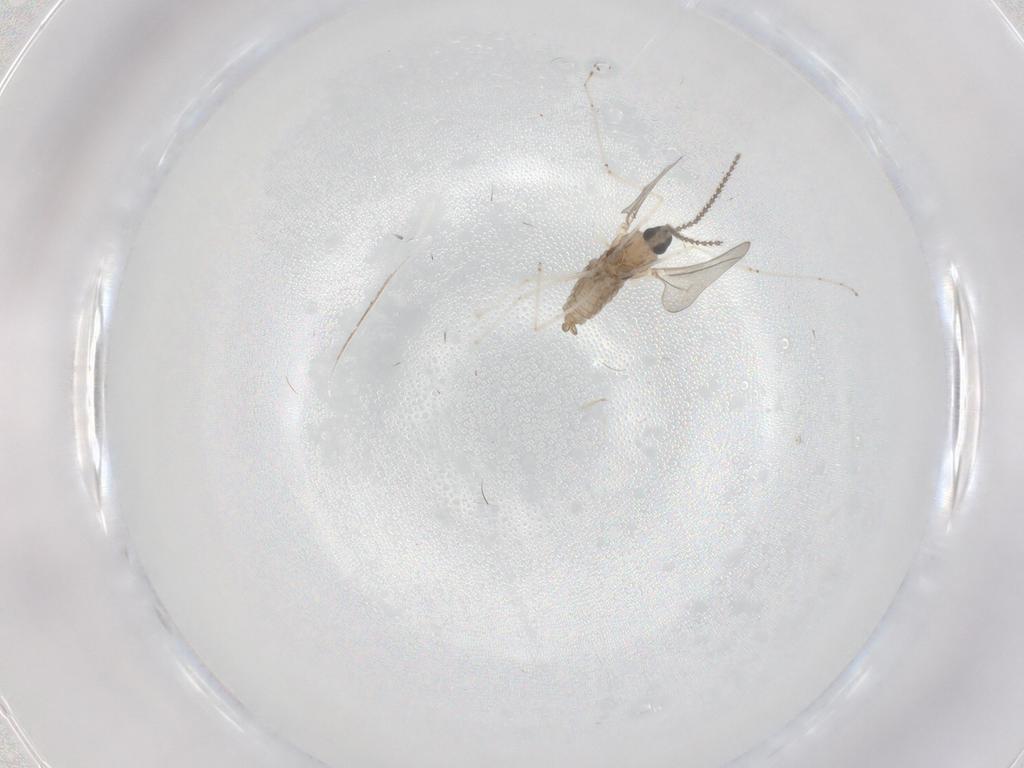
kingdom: Animalia
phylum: Arthropoda
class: Insecta
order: Diptera
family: Cecidomyiidae
